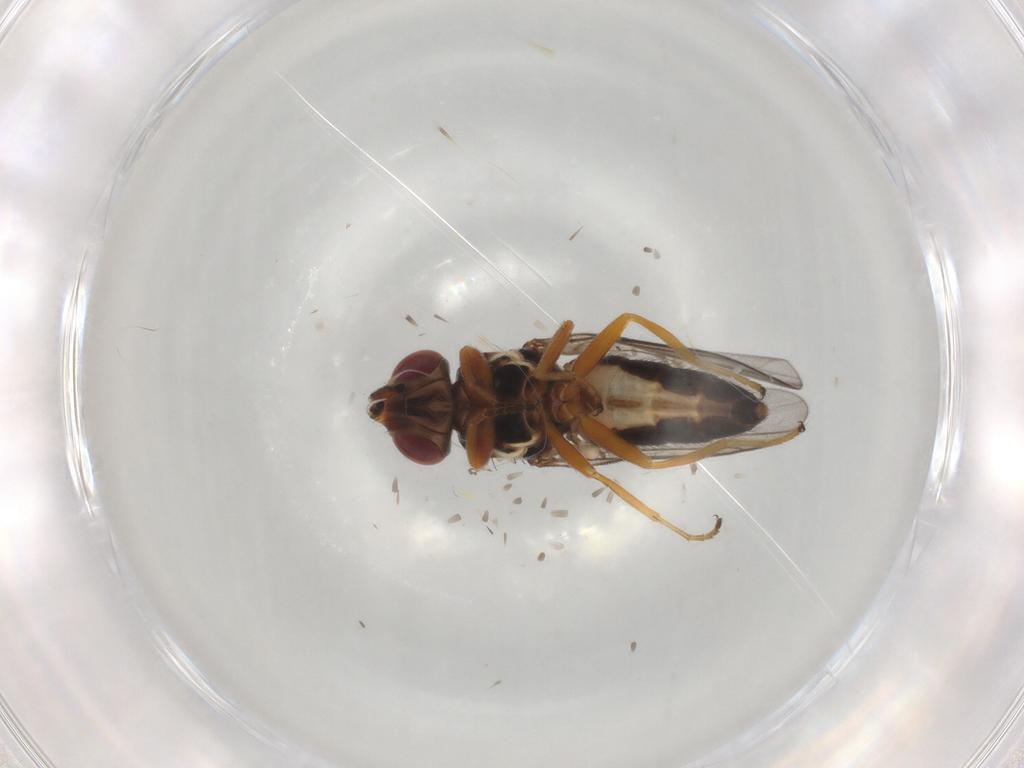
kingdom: Animalia
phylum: Arthropoda
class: Insecta
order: Diptera
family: Chloropidae
